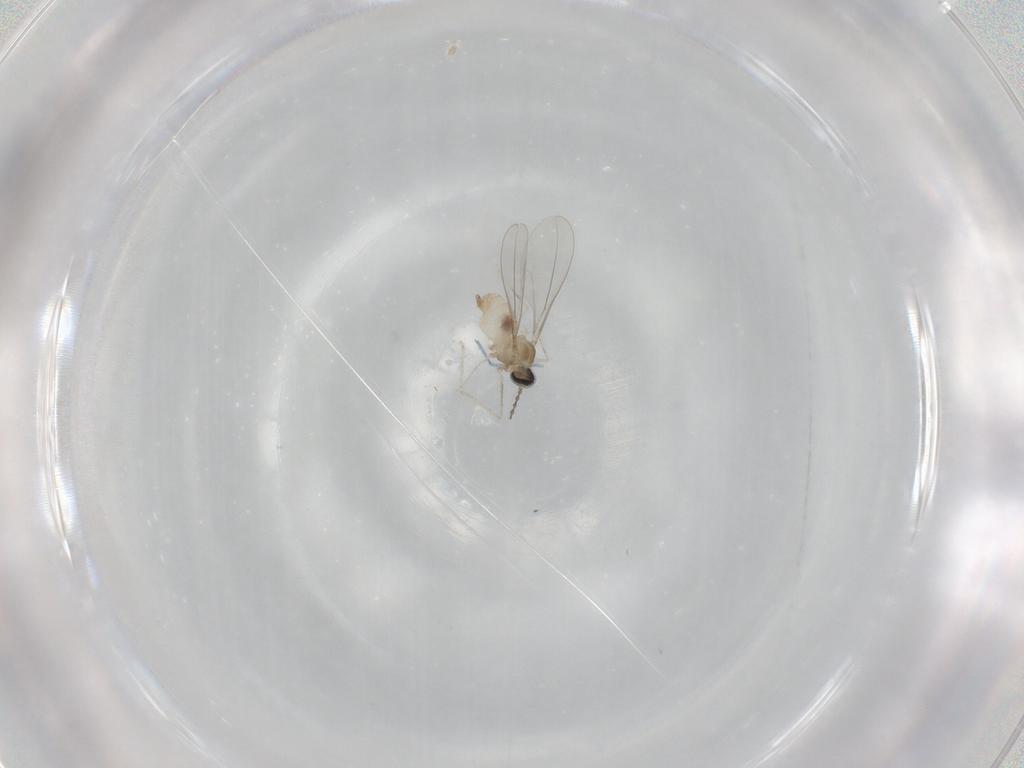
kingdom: Animalia
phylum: Arthropoda
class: Insecta
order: Diptera
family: Cecidomyiidae
